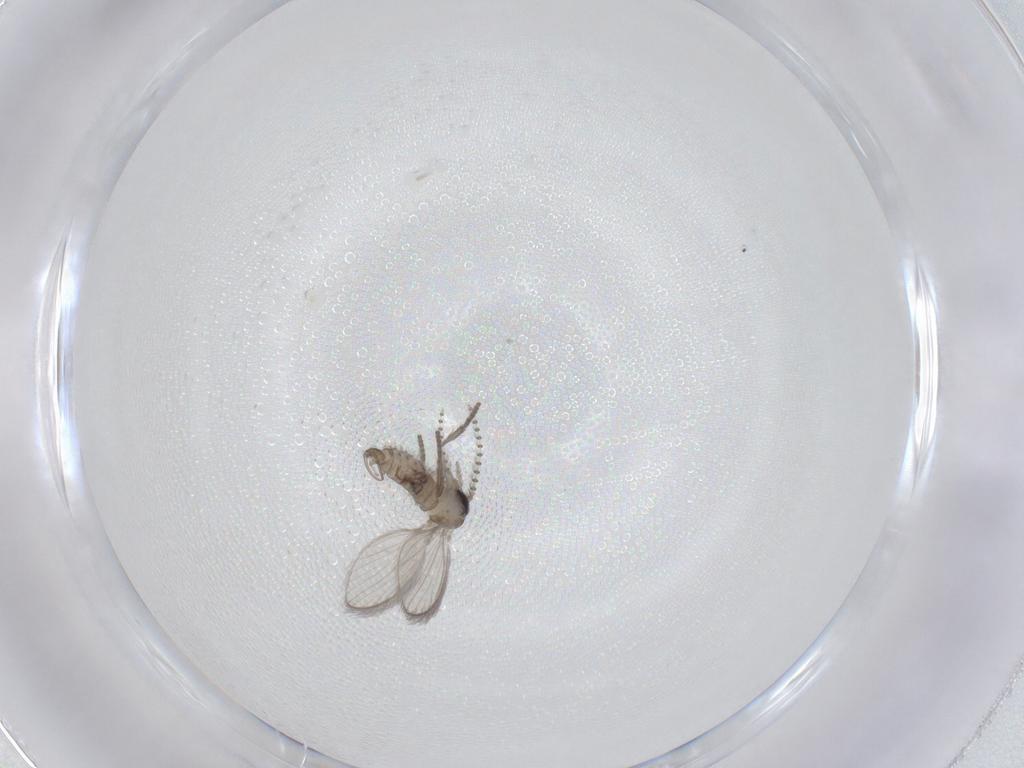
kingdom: Animalia
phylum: Arthropoda
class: Insecta
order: Diptera
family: Psychodidae
